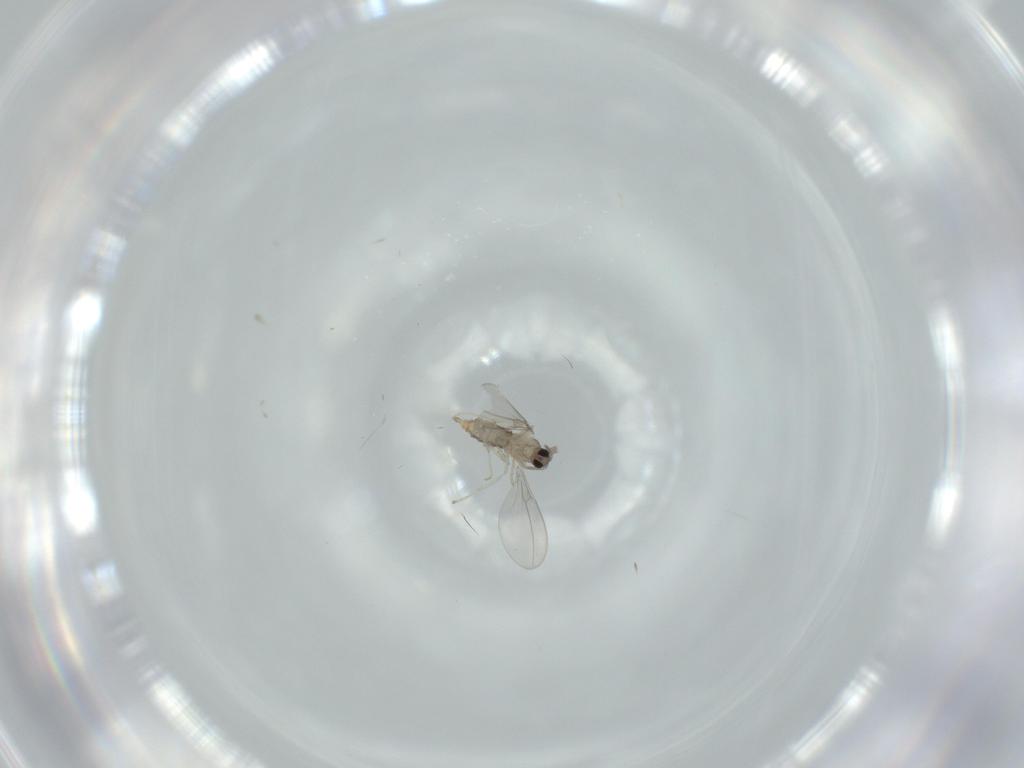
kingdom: Animalia
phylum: Arthropoda
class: Insecta
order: Diptera
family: Cecidomyiidae
